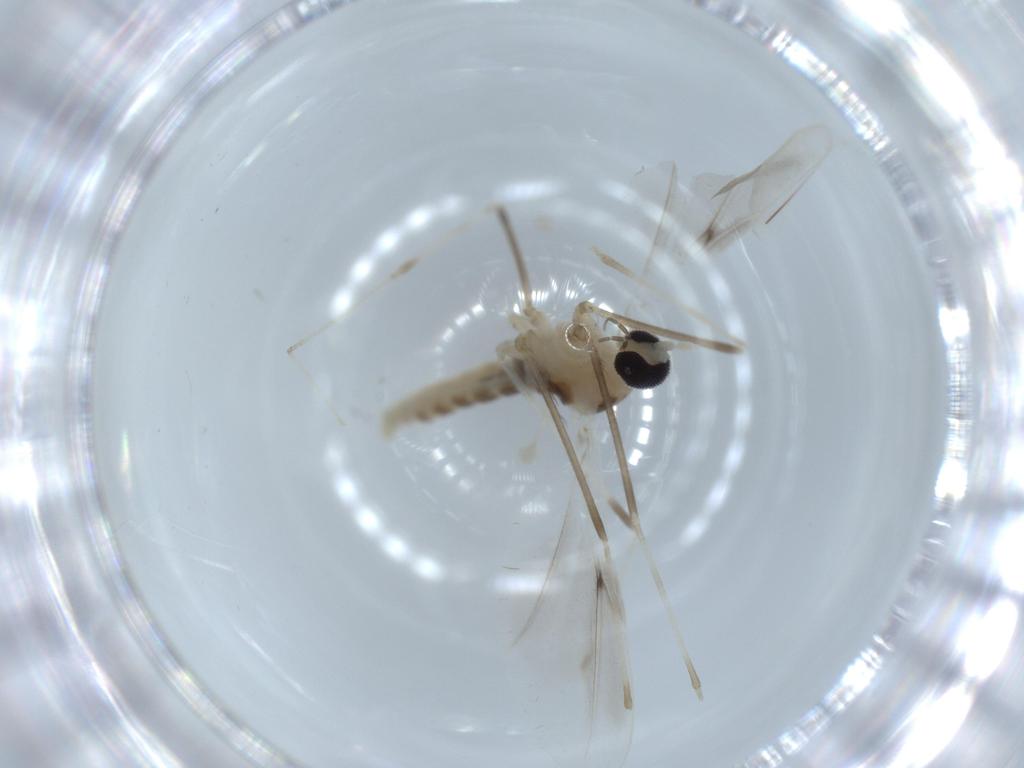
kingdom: Animalia
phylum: Arthropoda
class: Insecta
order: Diptera
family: Cecidomyiidae
